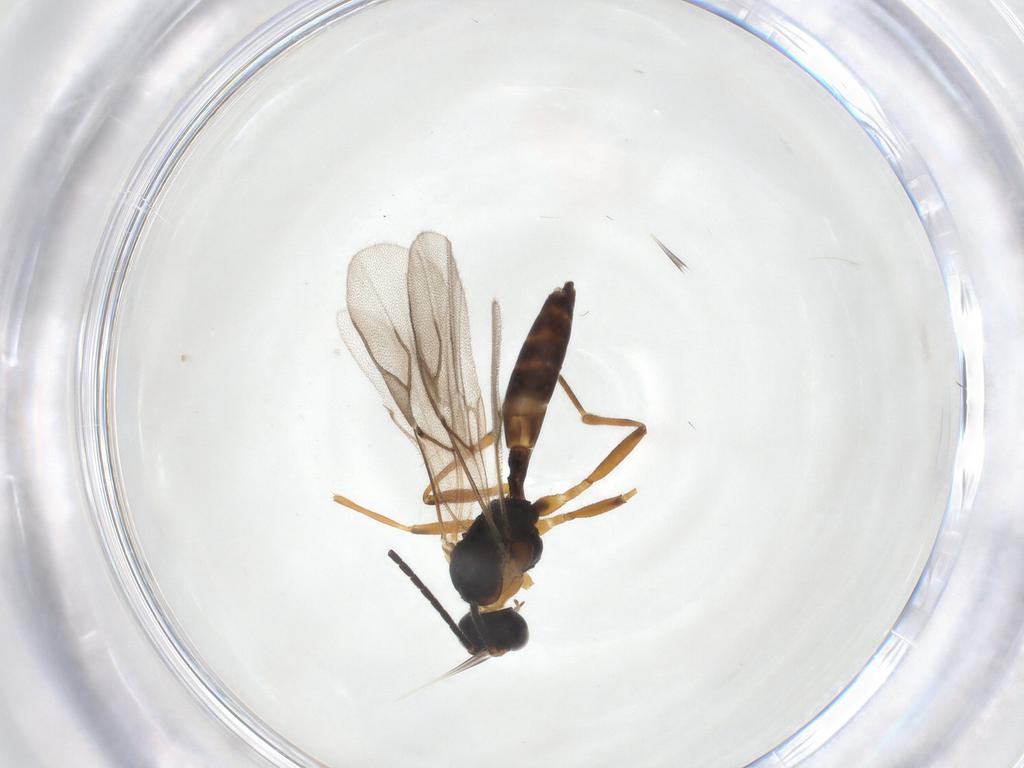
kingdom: Animalia
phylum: Arthropoda
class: Insecta
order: Hymenoptera
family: Braconidae
